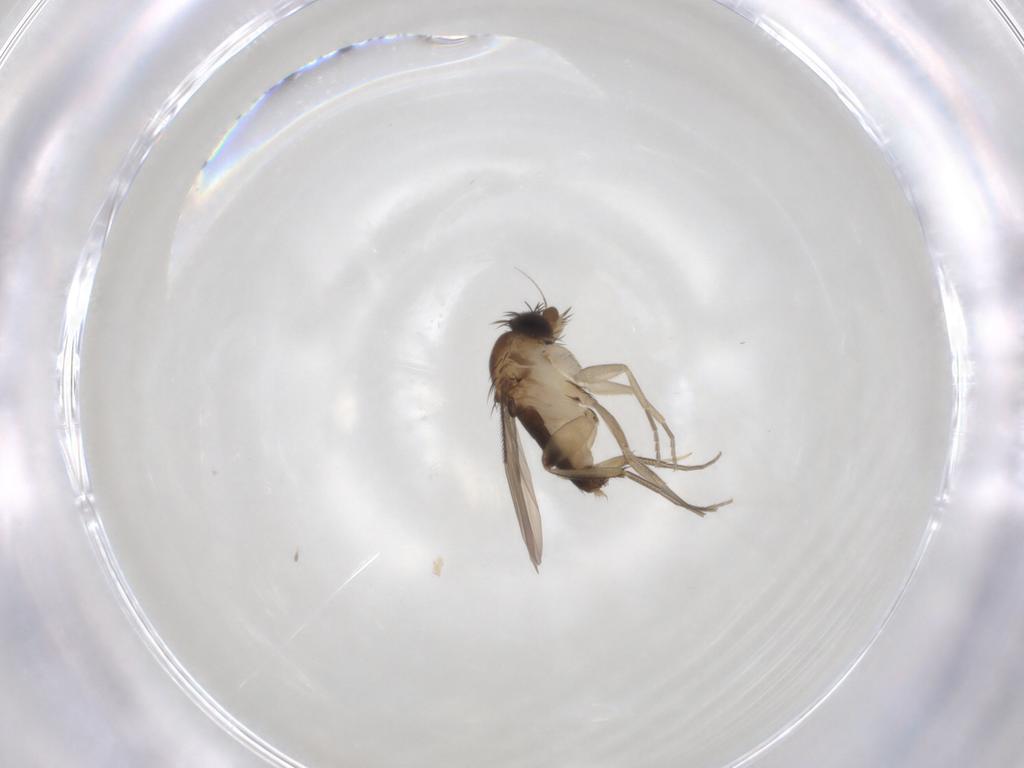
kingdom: Animalia
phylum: Arthropoda
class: Insecta
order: Diptera
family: Phoridae
